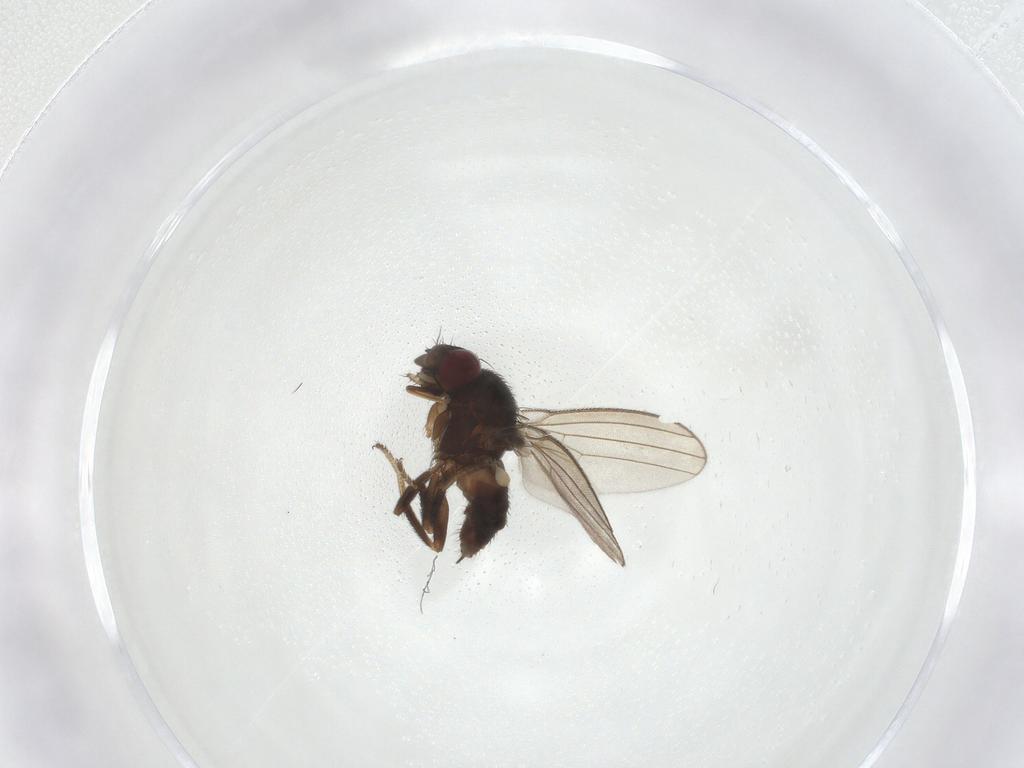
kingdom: Animalia
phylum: Arthropoda
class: Insecta
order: Diptera
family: Milichiidae
